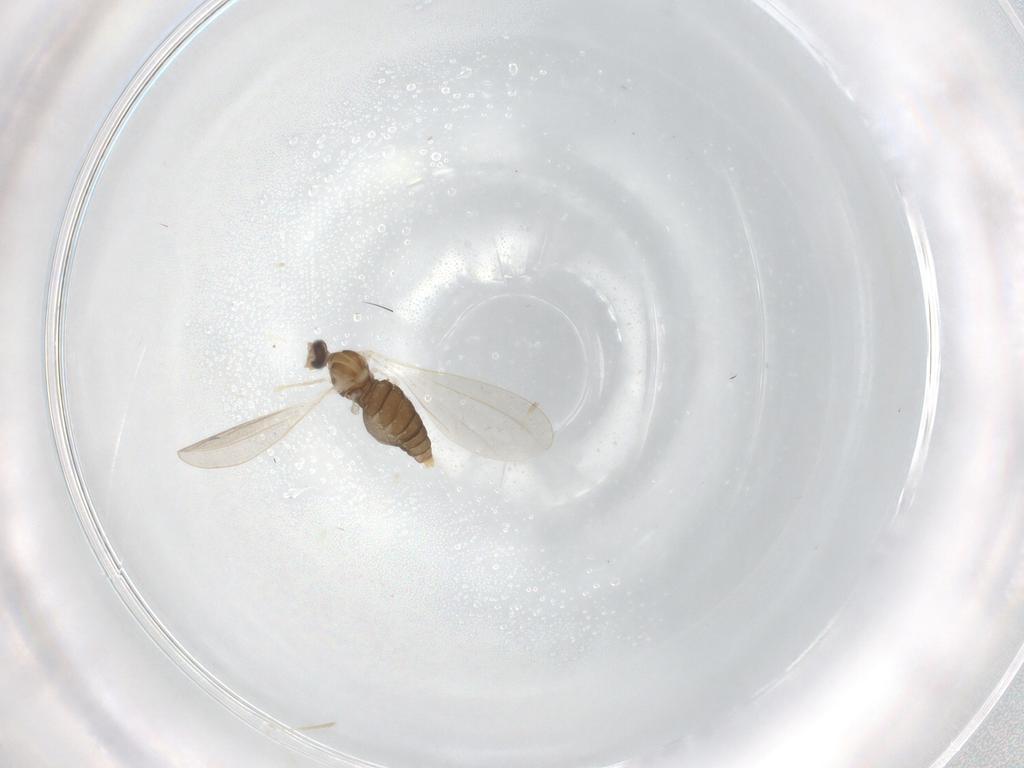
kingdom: Animalia
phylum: Arthropoda
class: Insecta
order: Diptera
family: Cecidomyiidae
